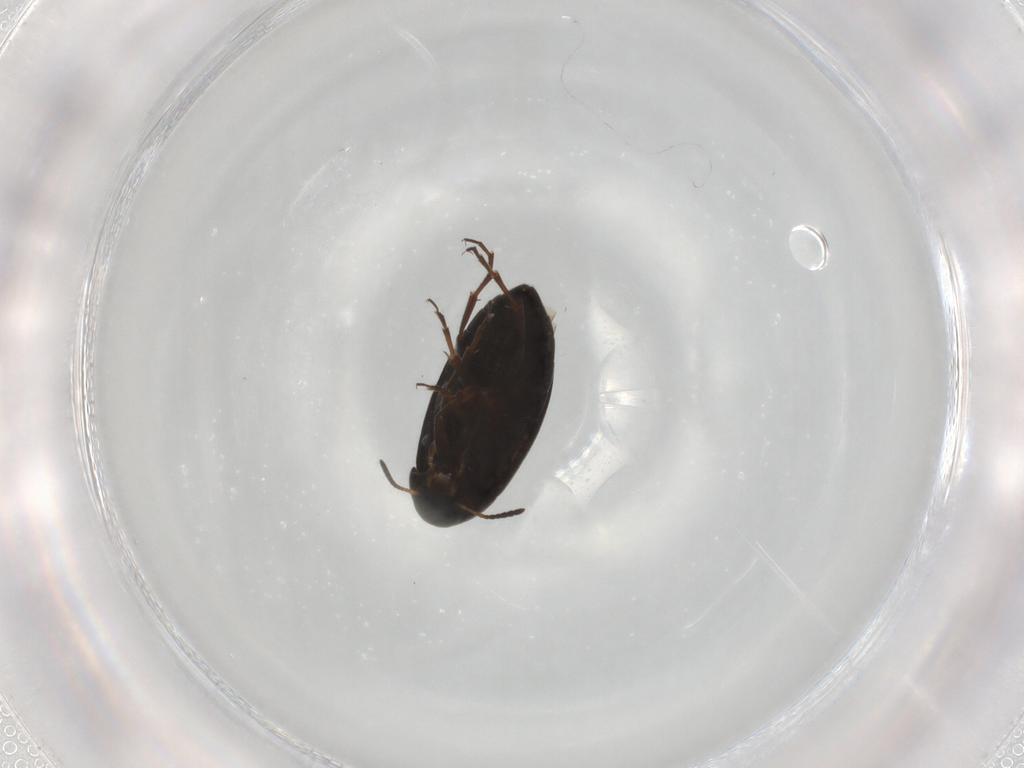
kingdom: Animalia
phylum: Arthropoda
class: Insecta
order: Coleoptera
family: Scraptiidae
